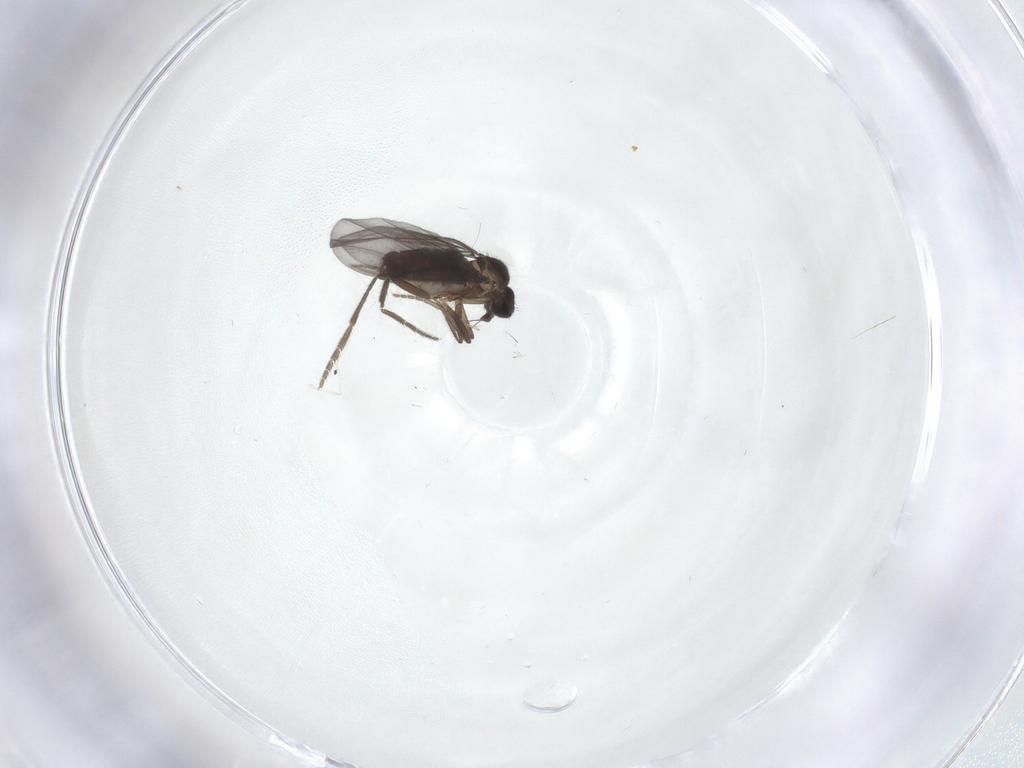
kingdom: Animalia
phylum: Arthropoda
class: Insecta
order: Diptera
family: Phoridae
